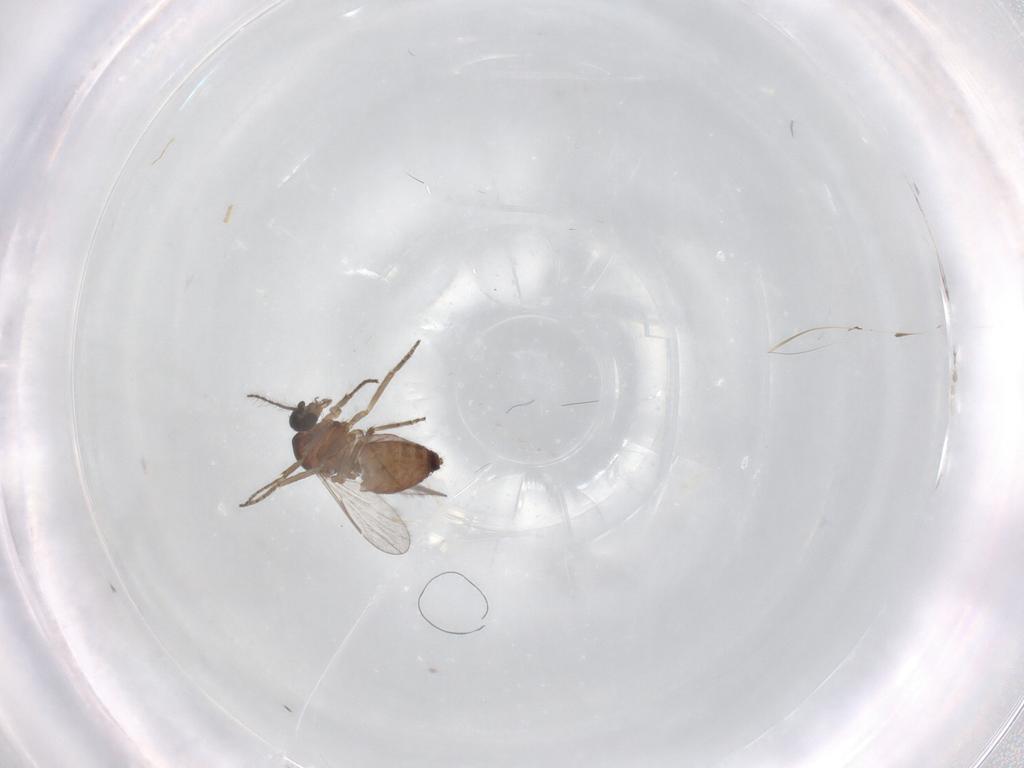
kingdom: Animalia
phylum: Arthropoda
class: Insecta
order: Diptera
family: Ceratopogonidae
